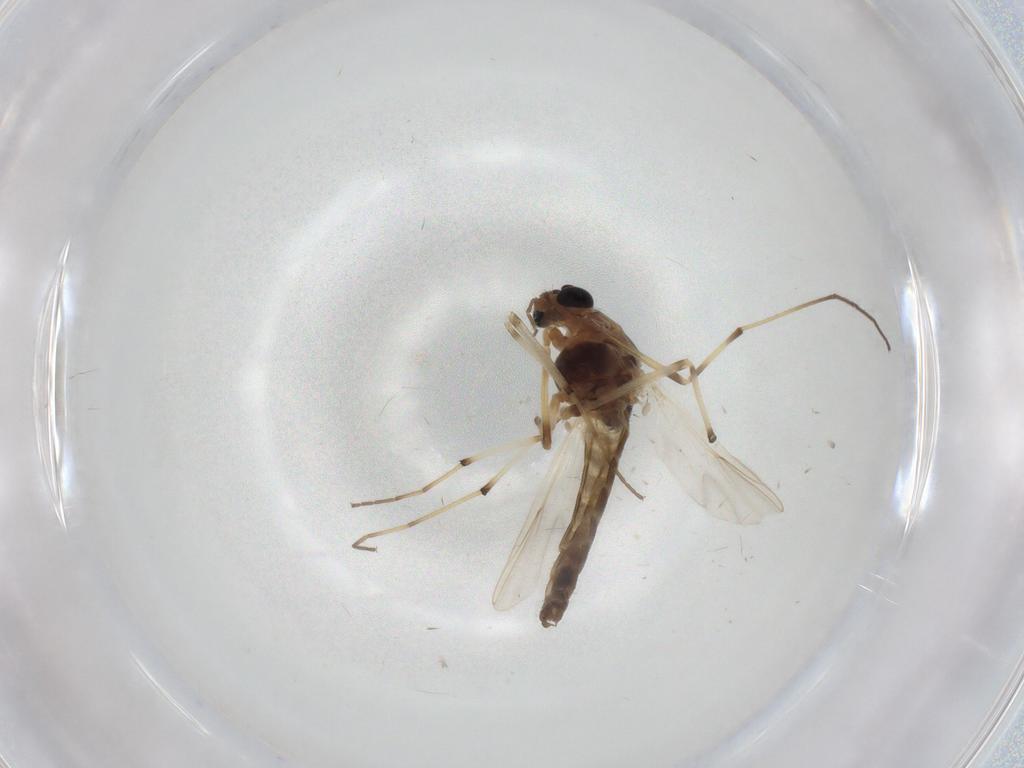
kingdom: Animalia
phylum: Arthropoda
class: Insecta
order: Diptera
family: Chironomidae
